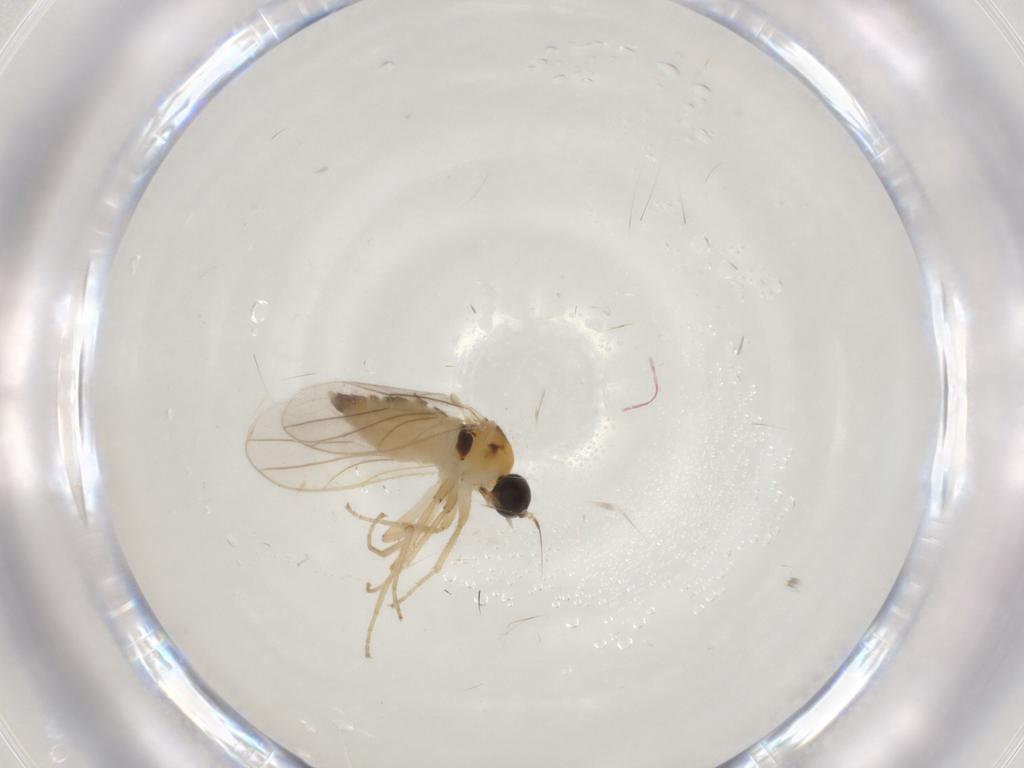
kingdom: Animalia
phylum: Arthropoda
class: Insecta
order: Diptera
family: Hybotidae
